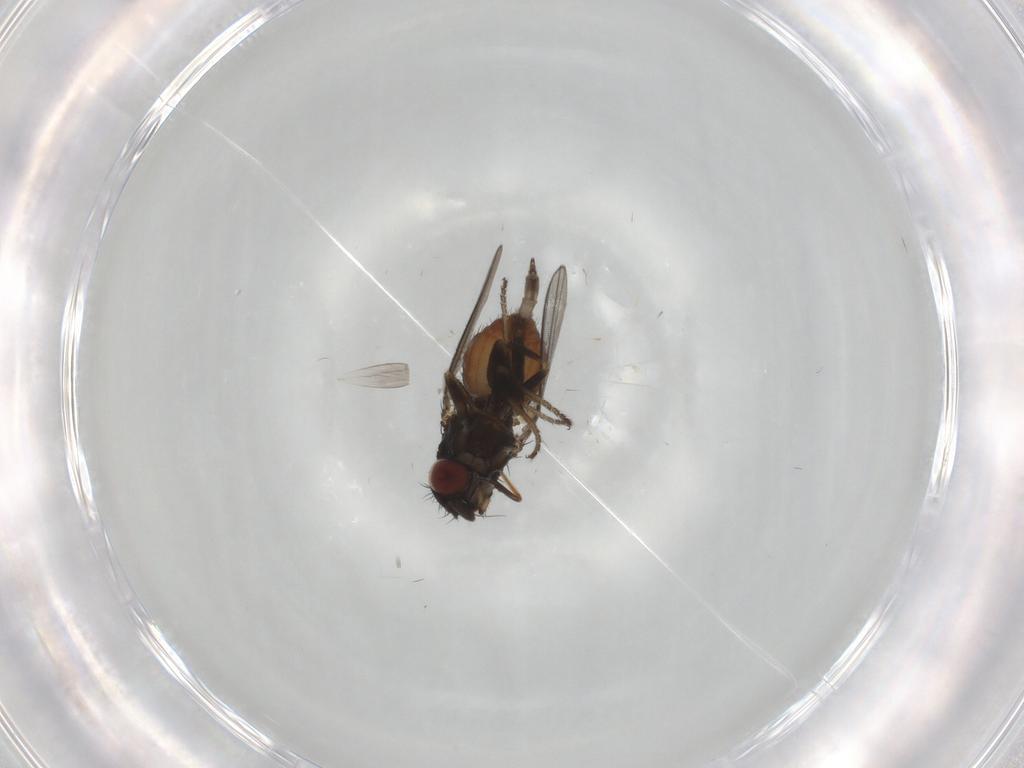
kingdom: Animalia
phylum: Arthropoda
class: Insecta
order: Diptera
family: Milichiidae
